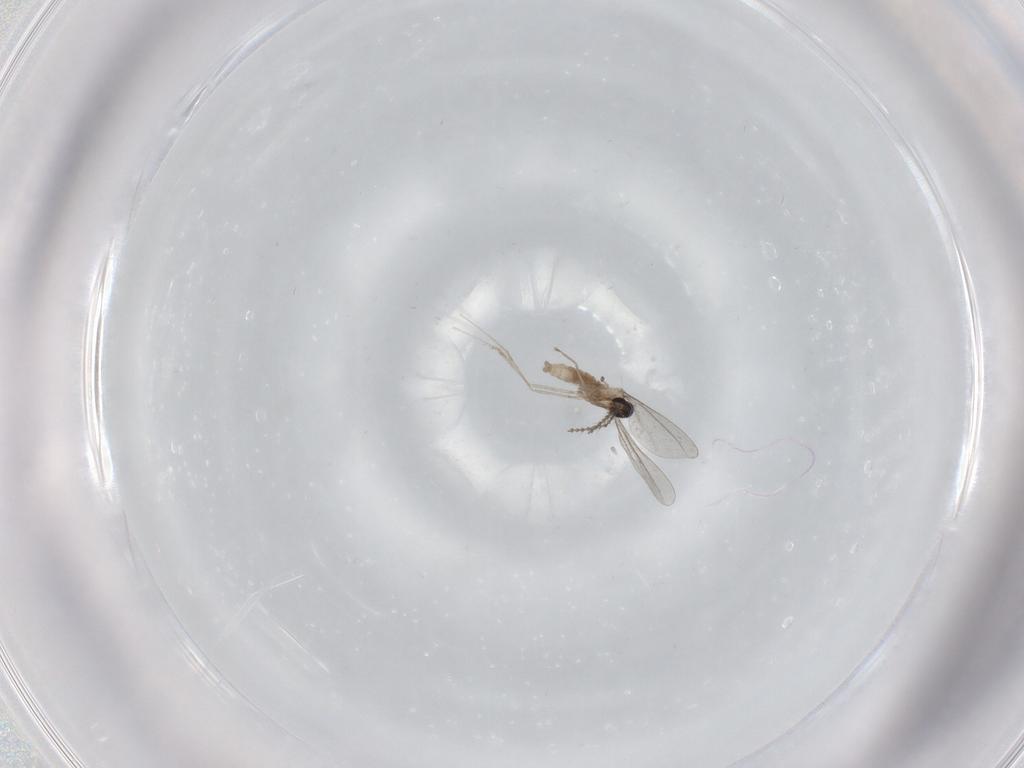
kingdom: Animalia
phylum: Arthropoda
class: Insecta
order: Diptera
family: Cecidomyiidae
